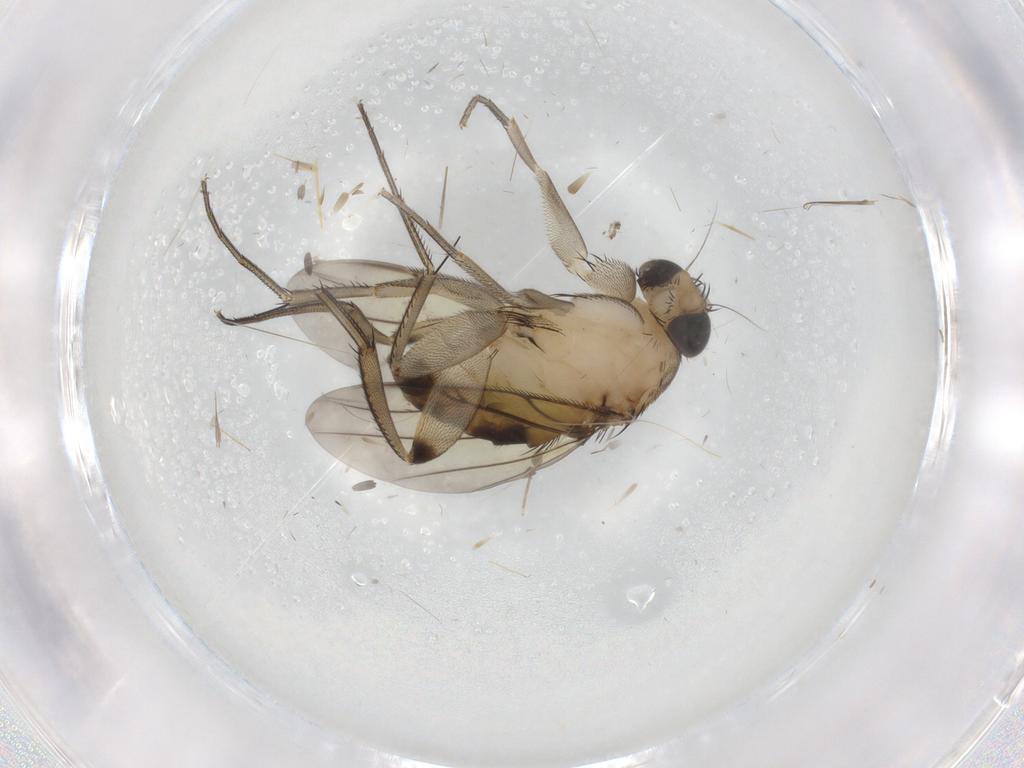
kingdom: Animalia
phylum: Arthropoda
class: Insecta
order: Diptera
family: Phoridae
